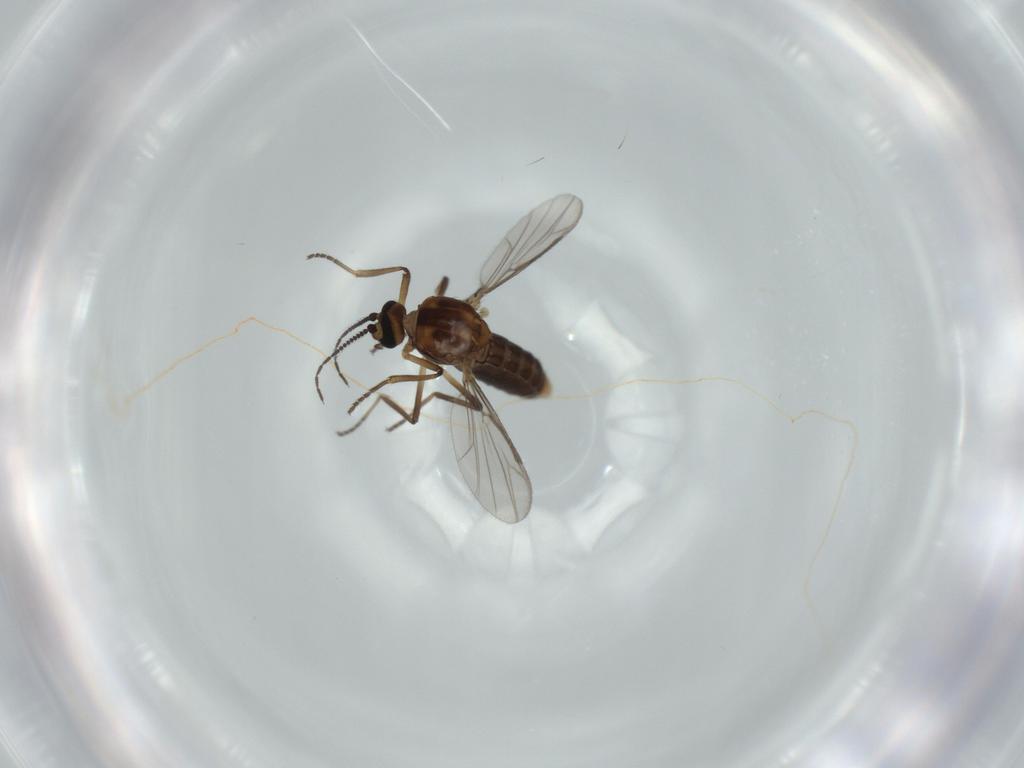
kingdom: Animalia
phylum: Arthropoda
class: Insecta
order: Diptera
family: Ceratopogonidae
